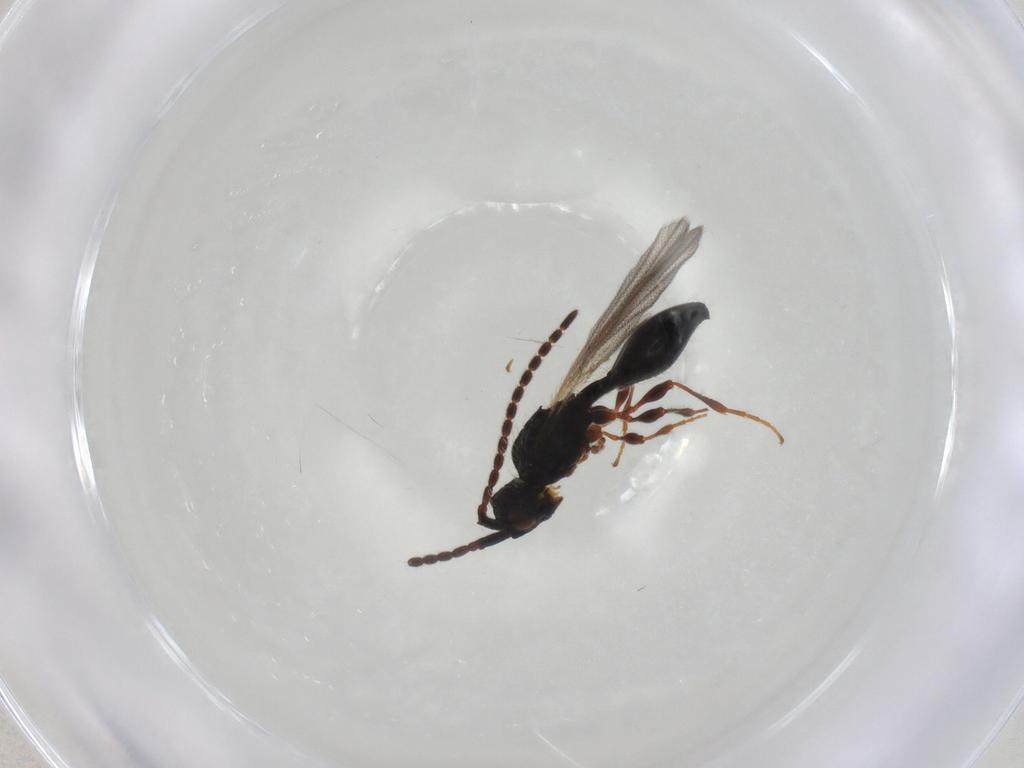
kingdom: Animalia
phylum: Arthropoda
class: Insecta
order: Hymenoptera
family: Diapriidae
